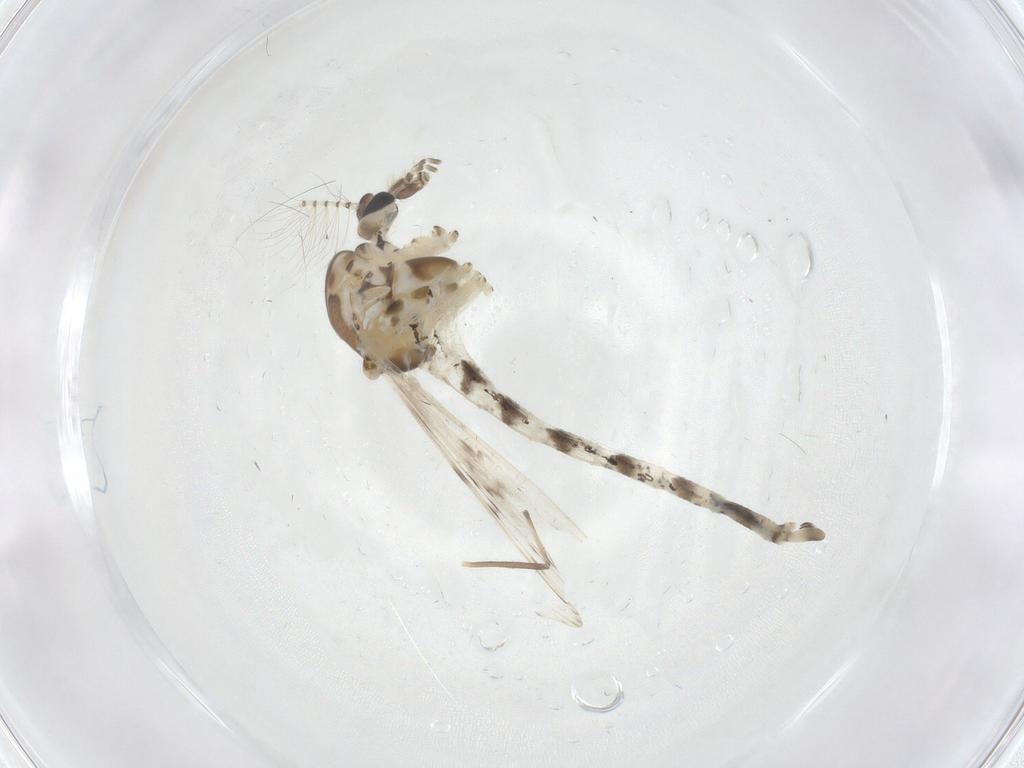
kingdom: Animalia
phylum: Arthropoda
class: Insecta
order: Diptera
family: Chaoboridae
